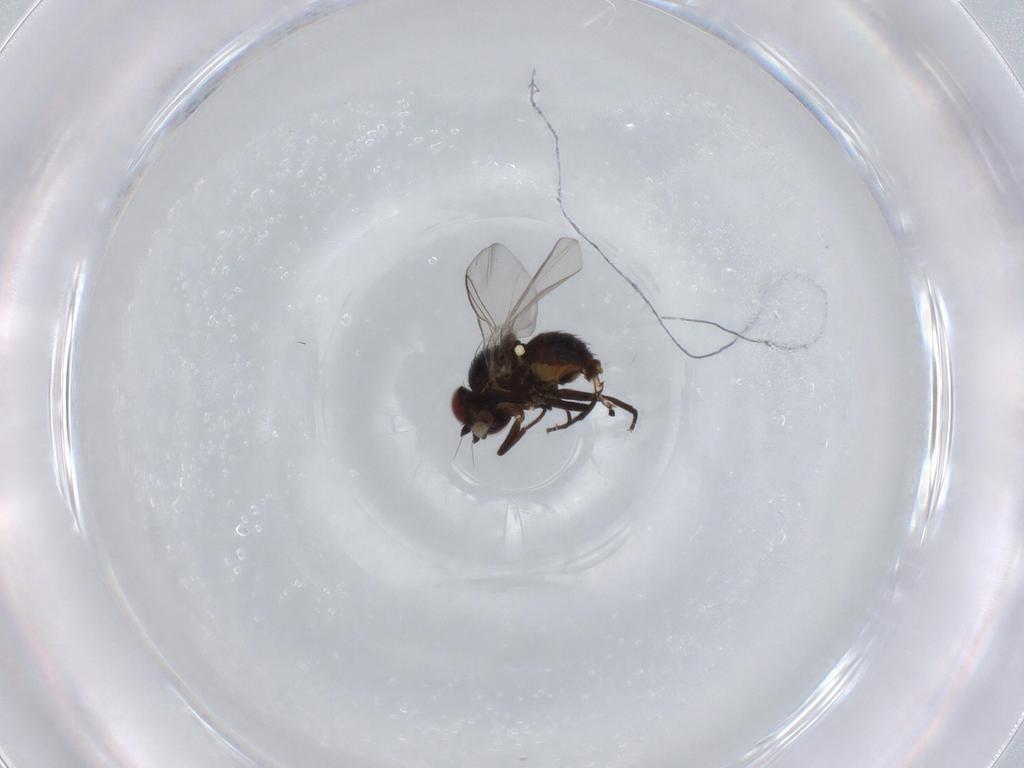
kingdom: Animalia
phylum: Arthropoda
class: Insecta
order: Diptera
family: Agromyzidae
